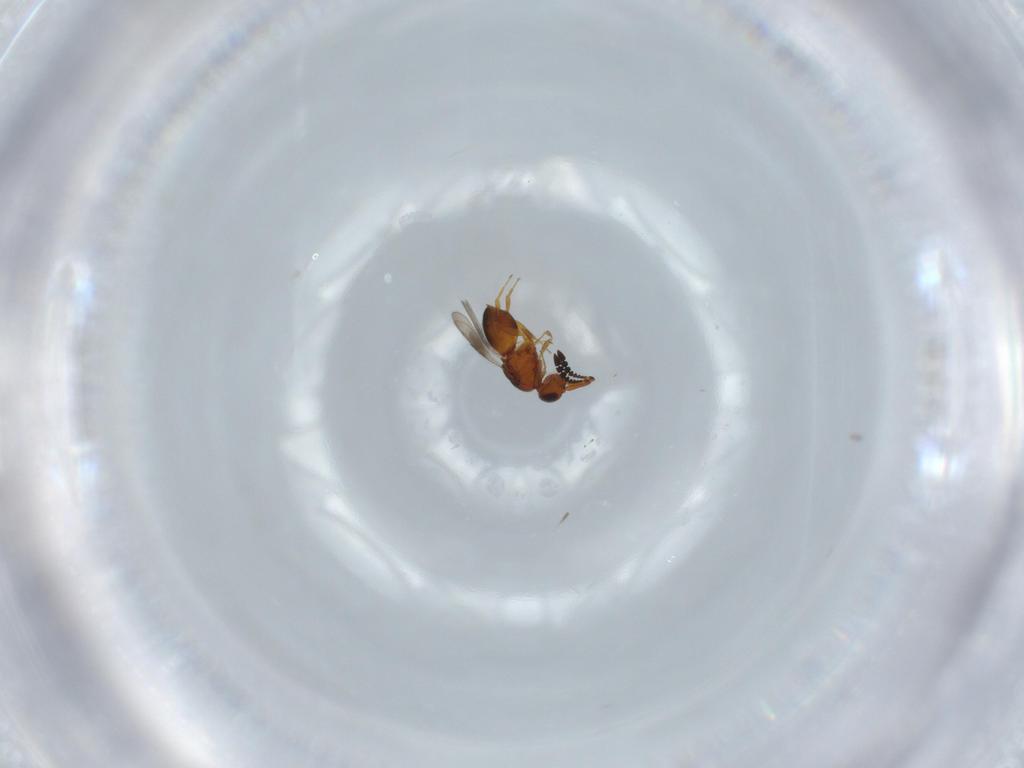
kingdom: Animalia
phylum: Arthropoda
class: Insecta
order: Hymenoptera
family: Ceraphronidae
